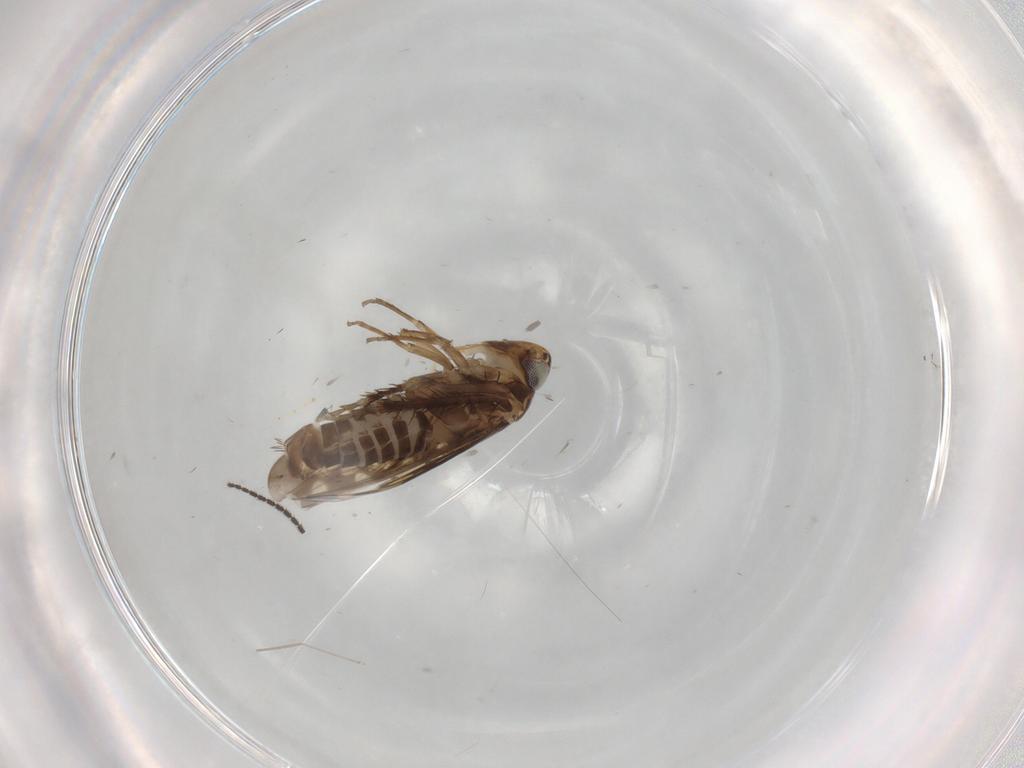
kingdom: Animalia
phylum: Arthropoda
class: Insecta
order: Hemiptera
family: Cicadellidae
